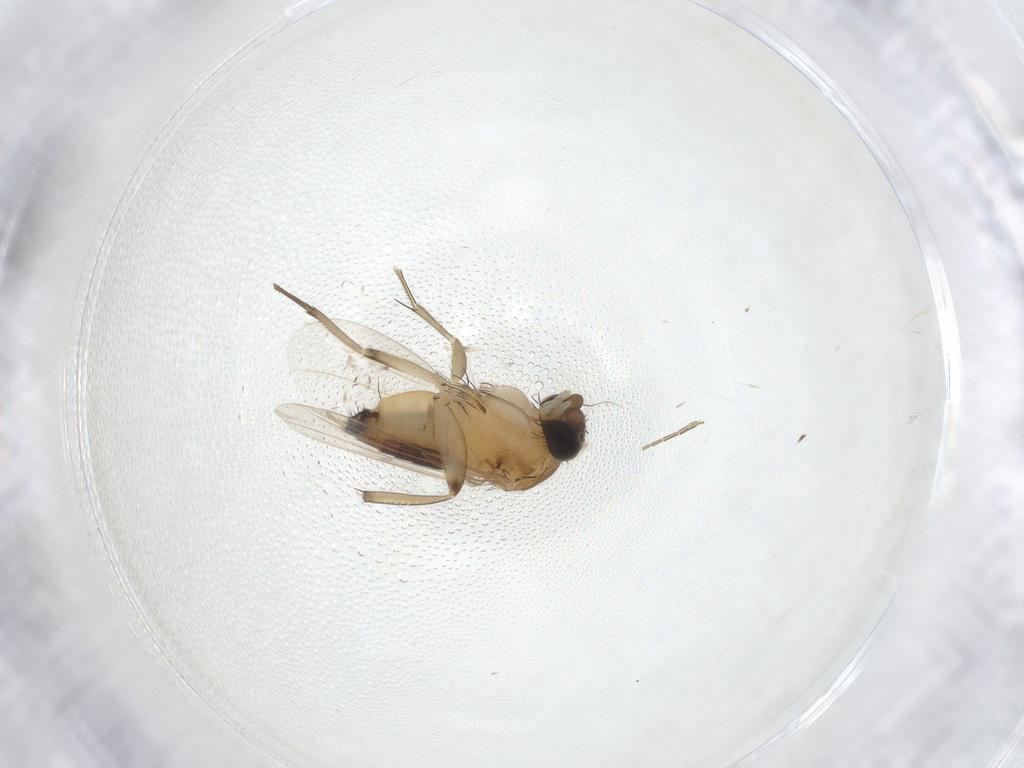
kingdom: Animalia
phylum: Arthropoda
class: Insecta
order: Diptera
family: Phoridae
